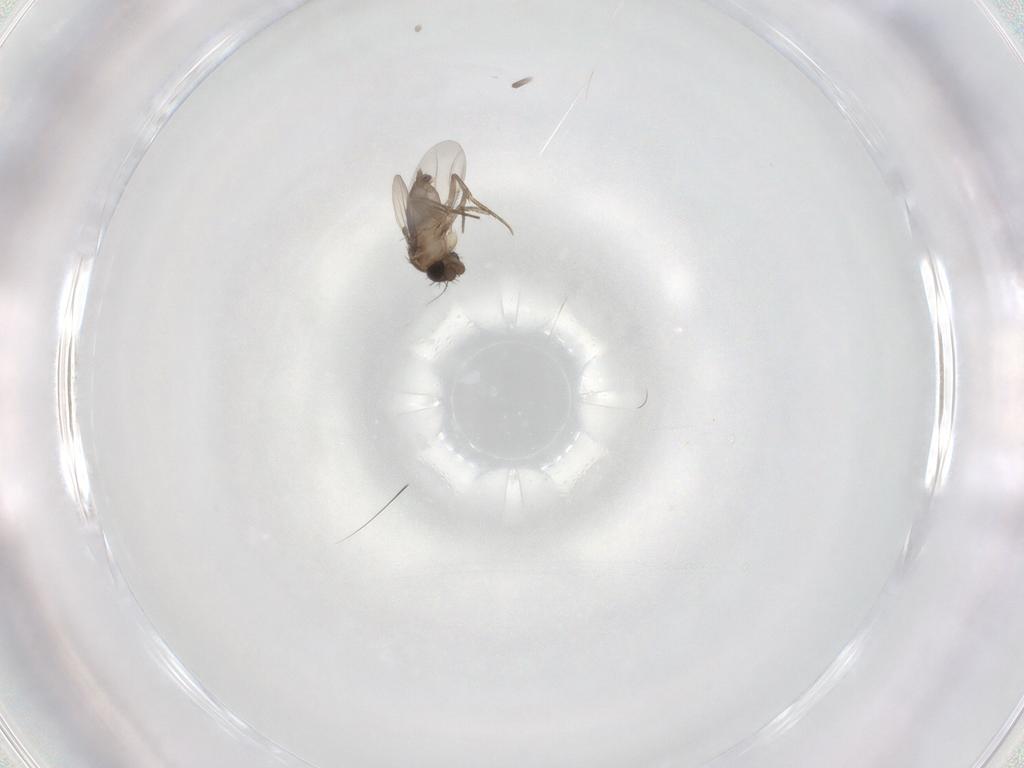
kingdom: Animalia
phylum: Arthropoda
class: Insecta
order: Diptera
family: Phoridae
